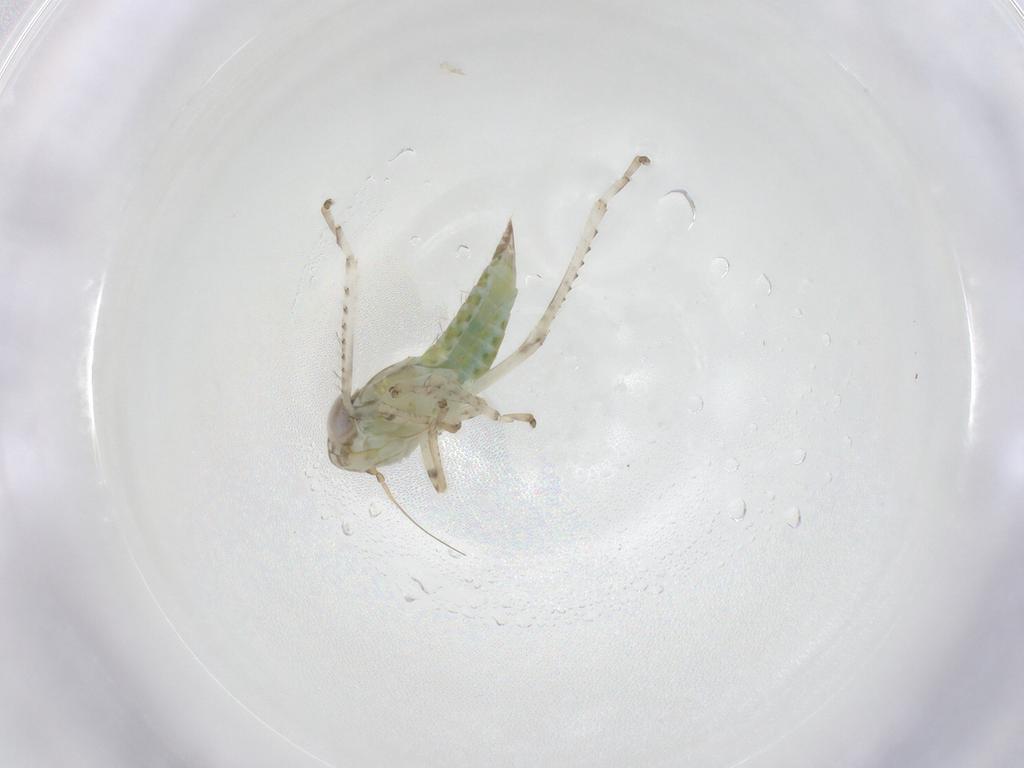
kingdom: Animalia
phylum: Arthropoda
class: Insecta
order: Hemiptera
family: Cicadellidae
